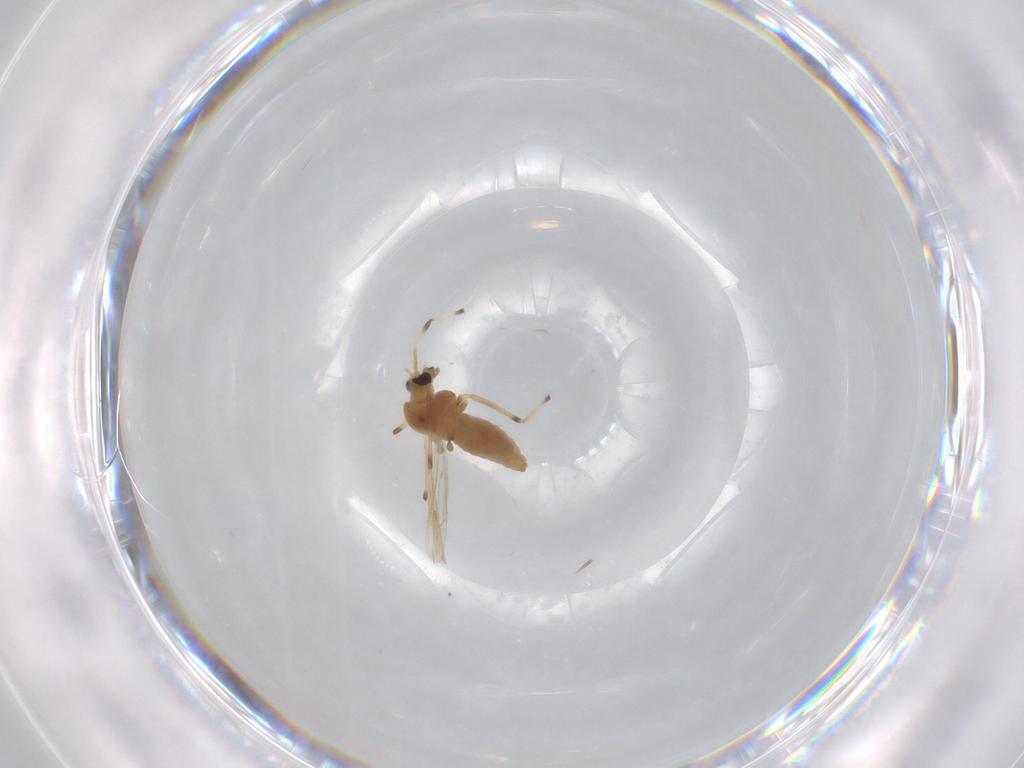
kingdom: Animalia
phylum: Arthropoda
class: Insecta
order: Diptera
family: Chironomidae
